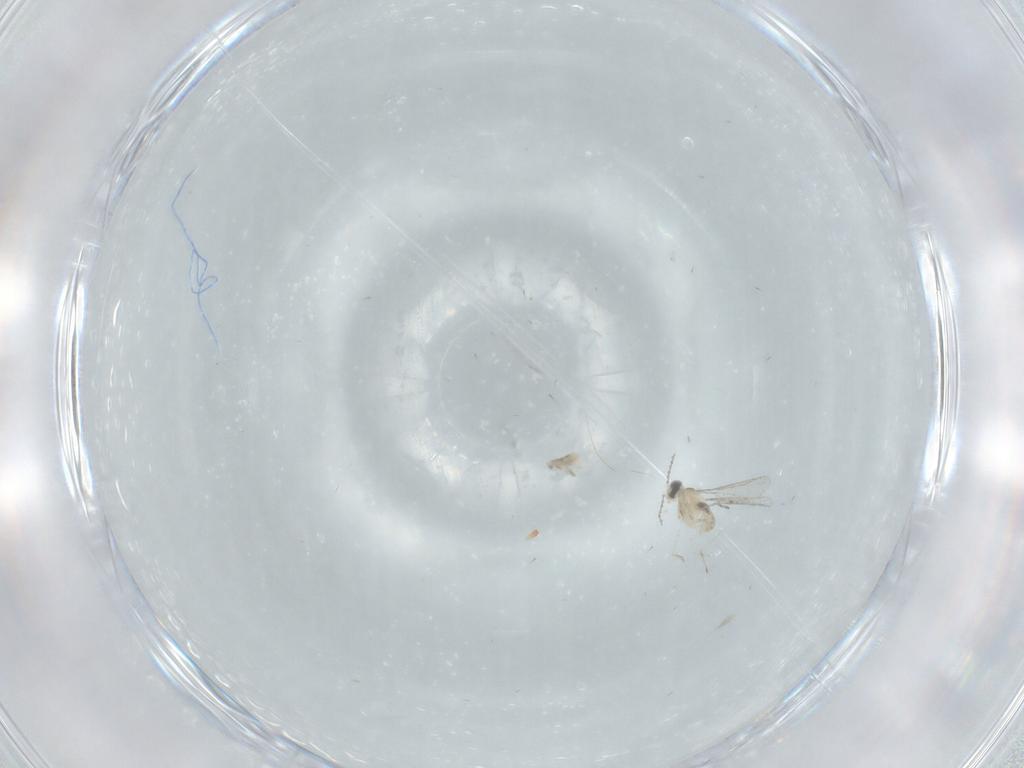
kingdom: Animalia
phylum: Arthropoda
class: Insecta
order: Diptera
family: Cecidomyiidae
